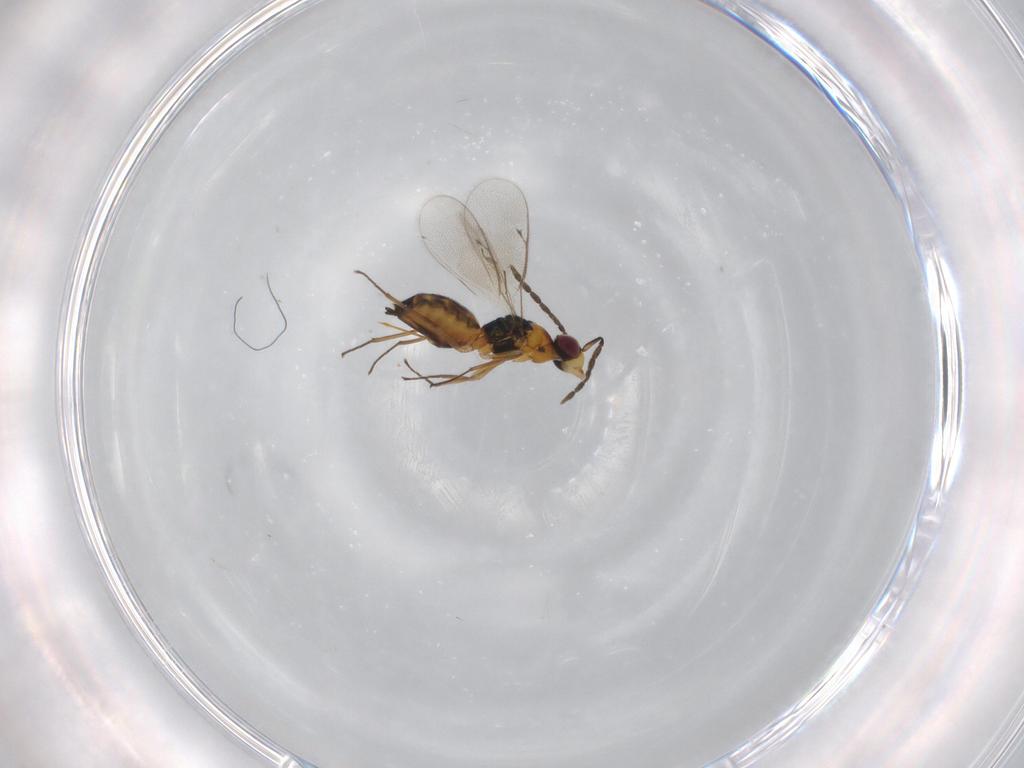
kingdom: Animalia
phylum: Arthropoda
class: Insecta
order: Hymenoptera
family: Eulophidae
